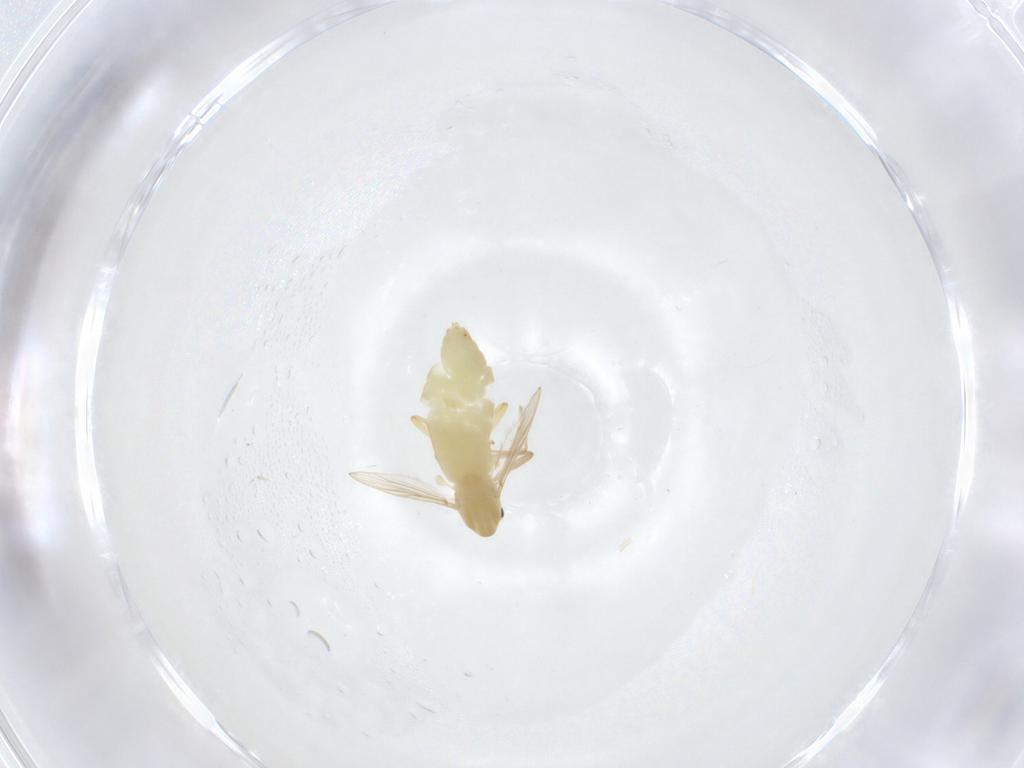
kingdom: Animalia
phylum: Arthropoda
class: Insecta
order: Diptera
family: Chironomidae
